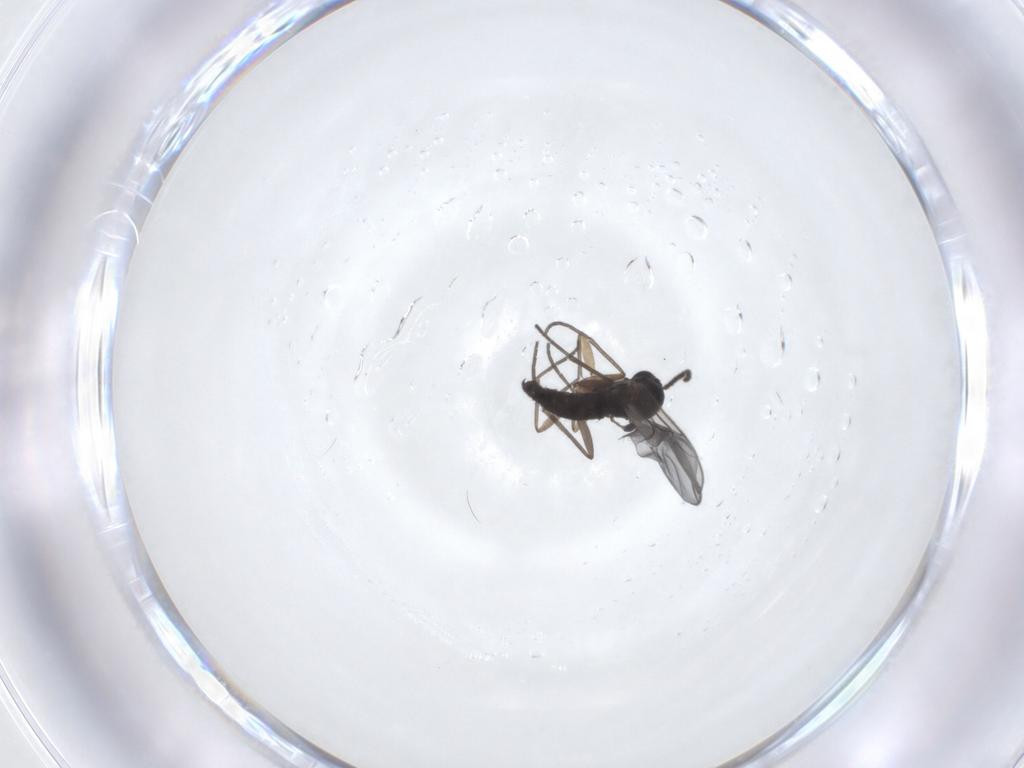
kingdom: Animalia
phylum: Arthropoda
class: Insecta
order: Diptera
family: Sciaridae
